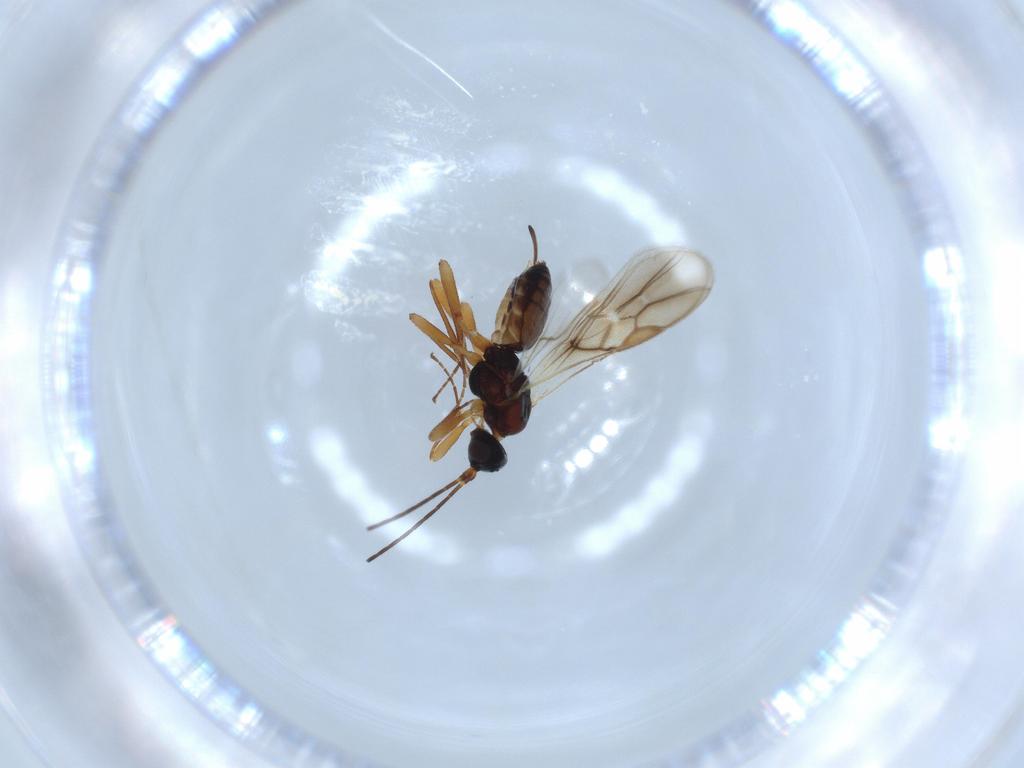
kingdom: Animalia
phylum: Arthropoda
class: Insecta
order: Hymenoptera
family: Braconidae
